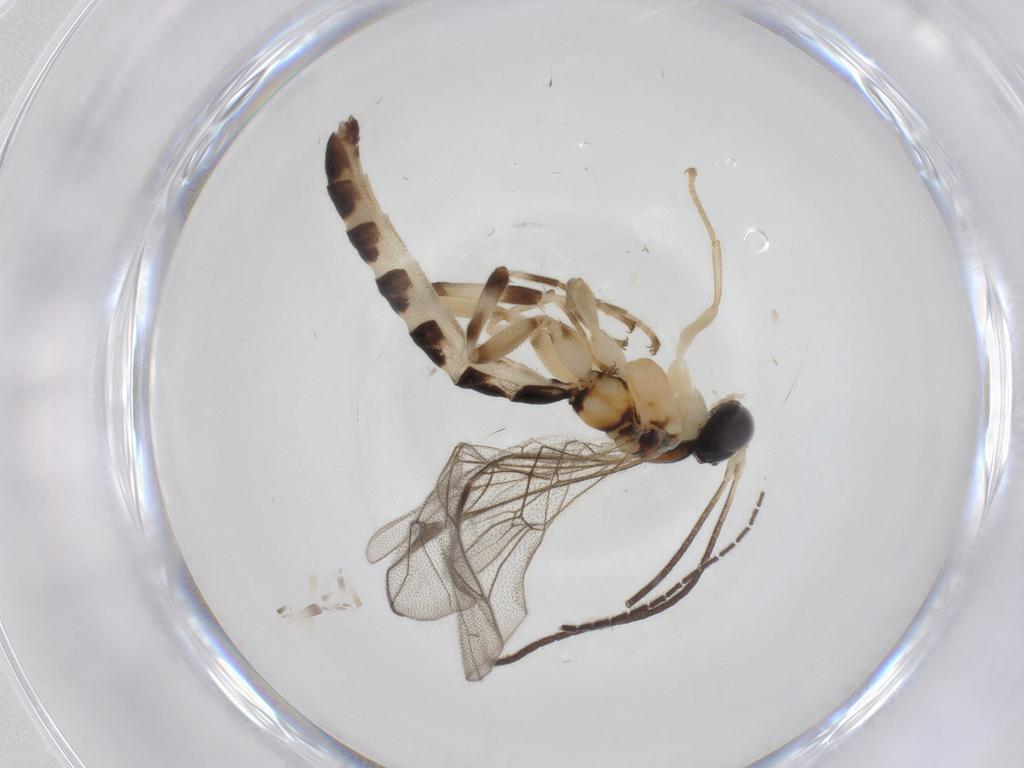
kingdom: Animalia
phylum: Arthropoda
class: Insecta
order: Hymenoptera
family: Ichneumonidae
